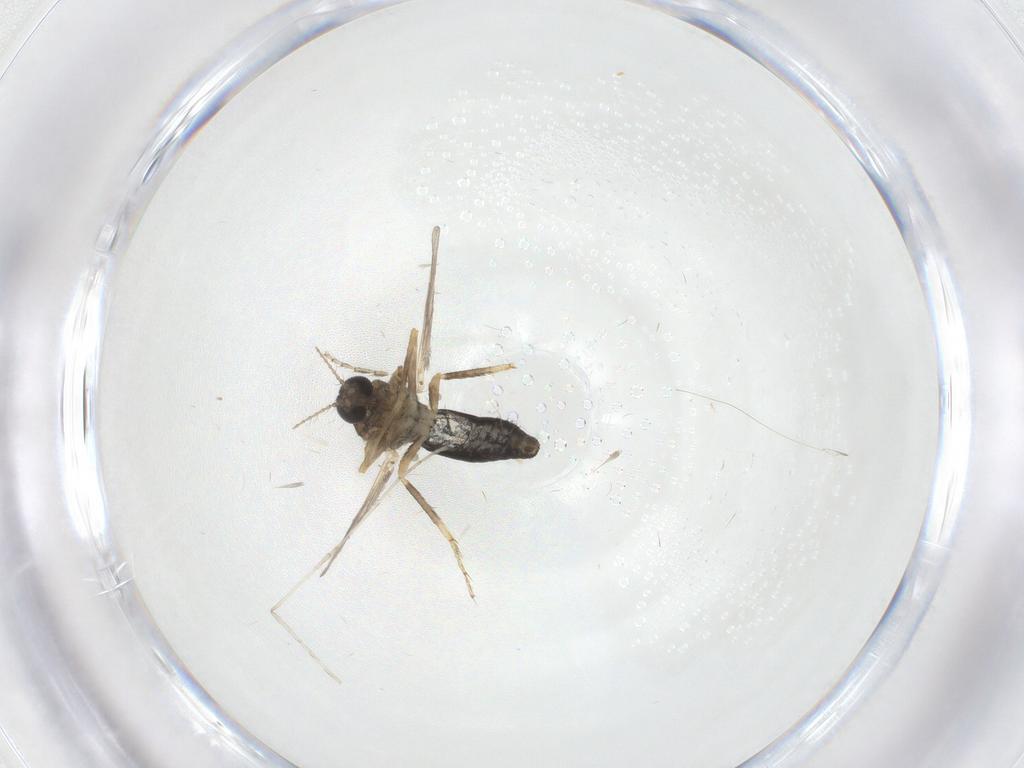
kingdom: Animalia
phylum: Arthropoda
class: Insecta
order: Diptera
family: Ceratopogonidae
